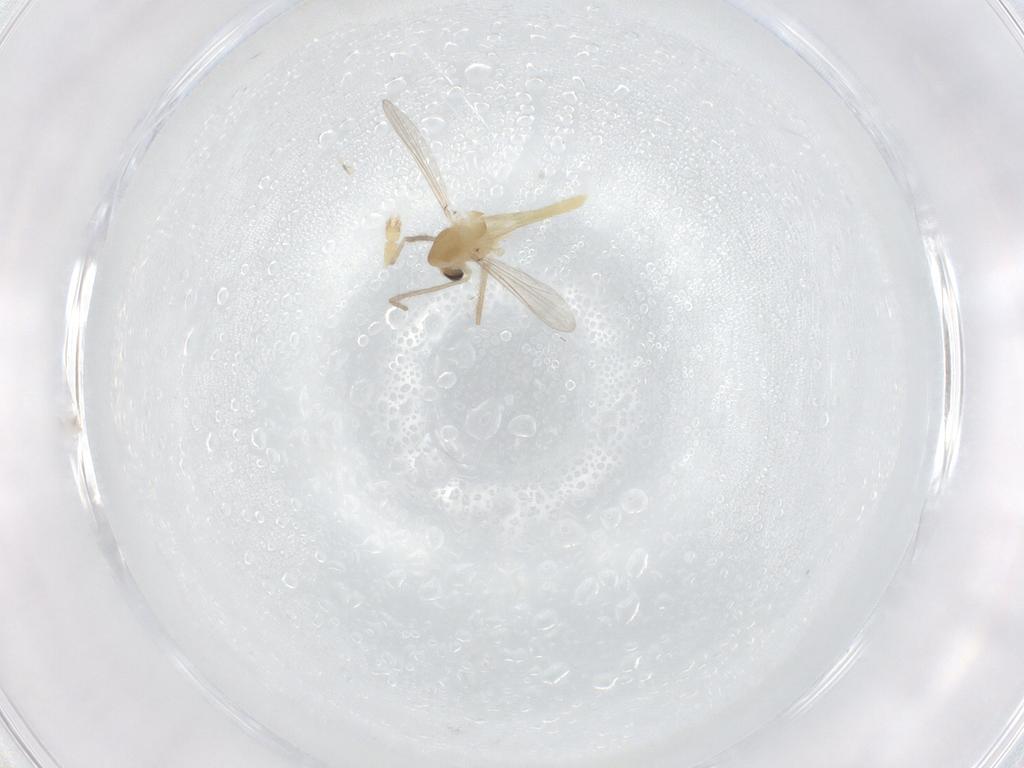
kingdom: Animalia
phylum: Arthropoda
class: Insecta
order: Diptera
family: Chironomidae
